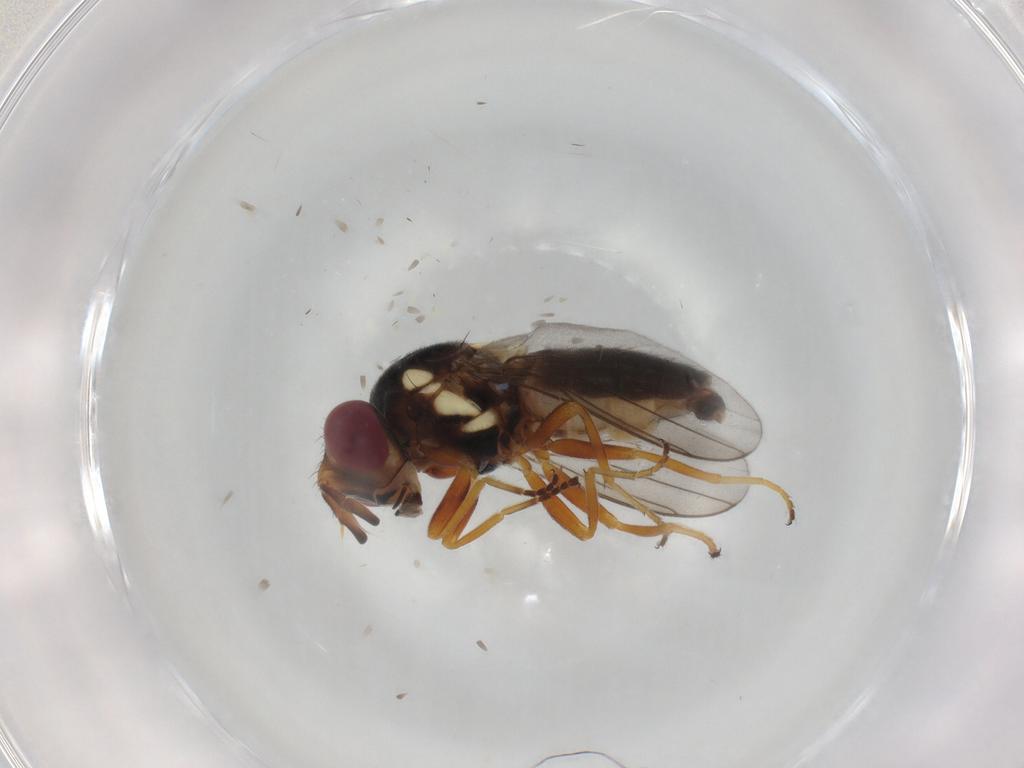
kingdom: Animalia
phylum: Arthropoda
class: Insecta
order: Diptera
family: Chloropidae
